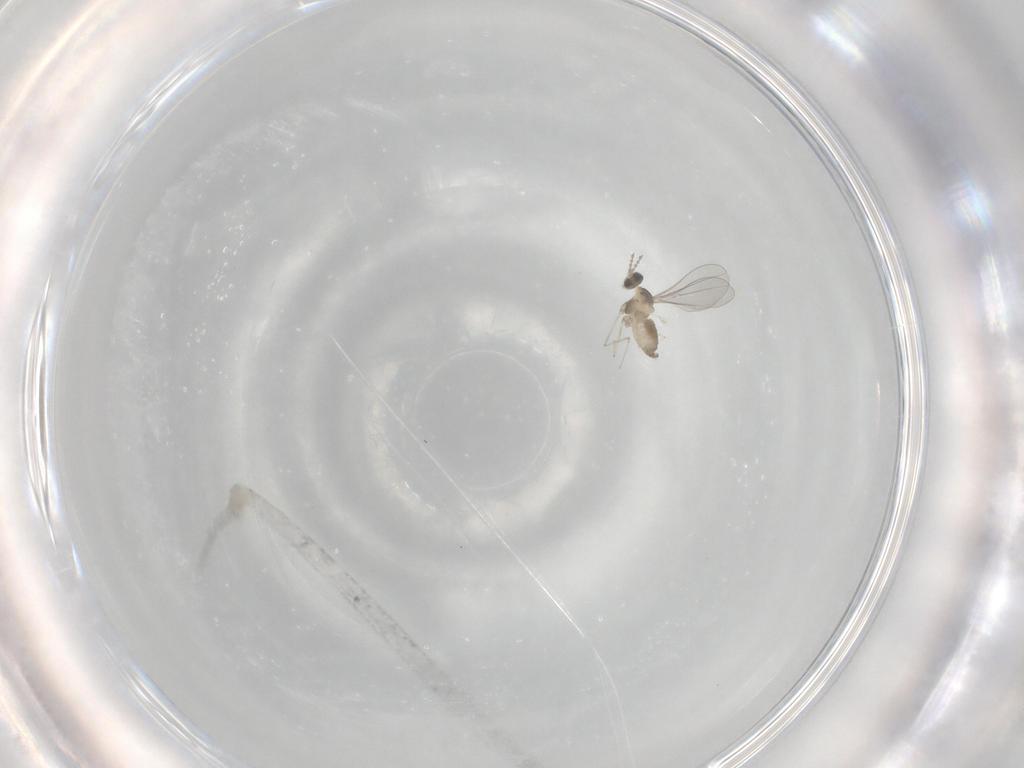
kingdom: Animalia
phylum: Arthropoda
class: Insecta
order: Diptera
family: Cecidomyiidae
